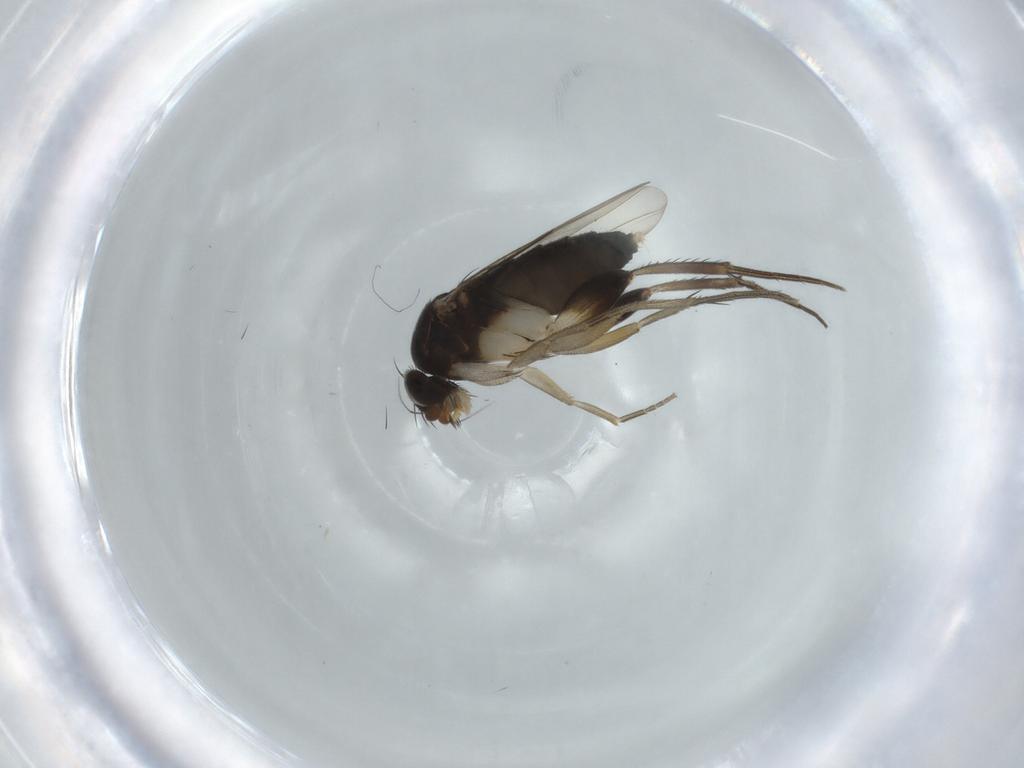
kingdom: Animalia
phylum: Arthropoda
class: Insecta
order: Diptera
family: Phoridae
